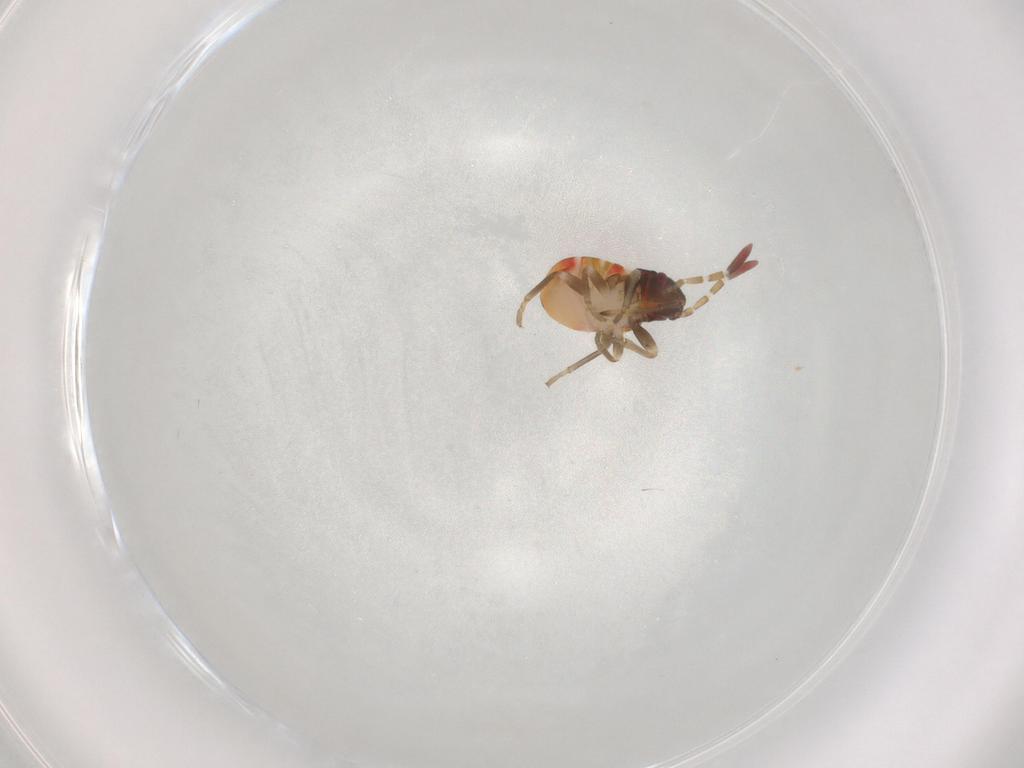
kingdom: Animalia
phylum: Arthropoda
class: Insecta
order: Hemiptera
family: Rhyparochromidae
